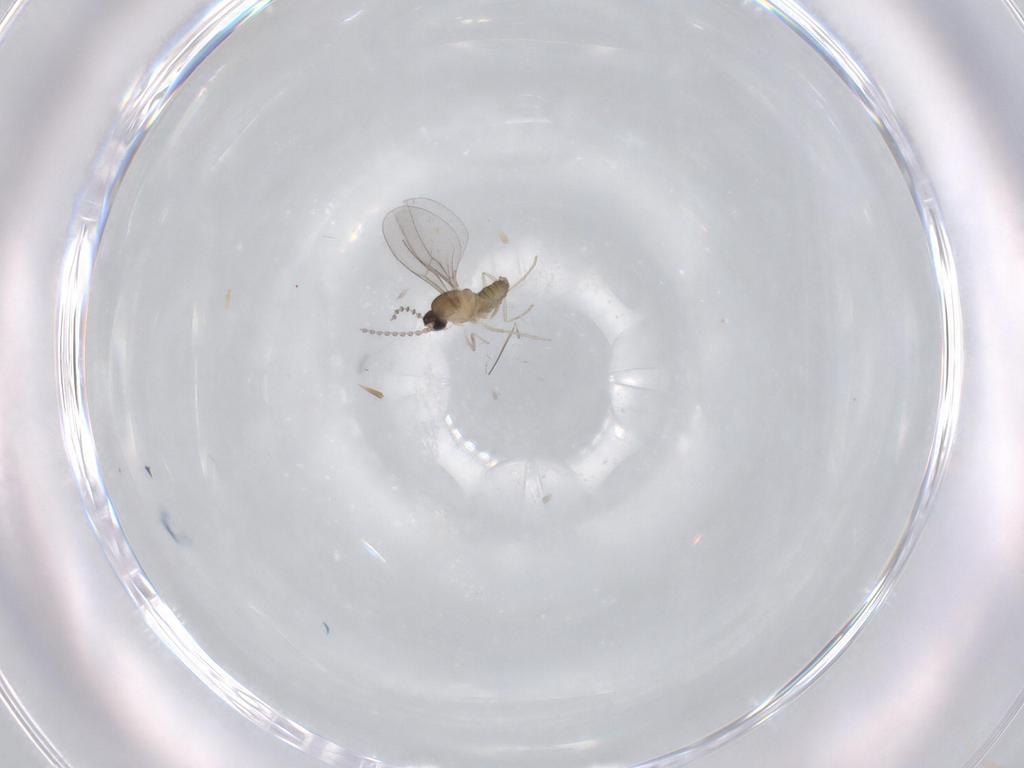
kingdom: Animalia
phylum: Arthropoda
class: Insecta
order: Diptera
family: Cecidomyiidae
